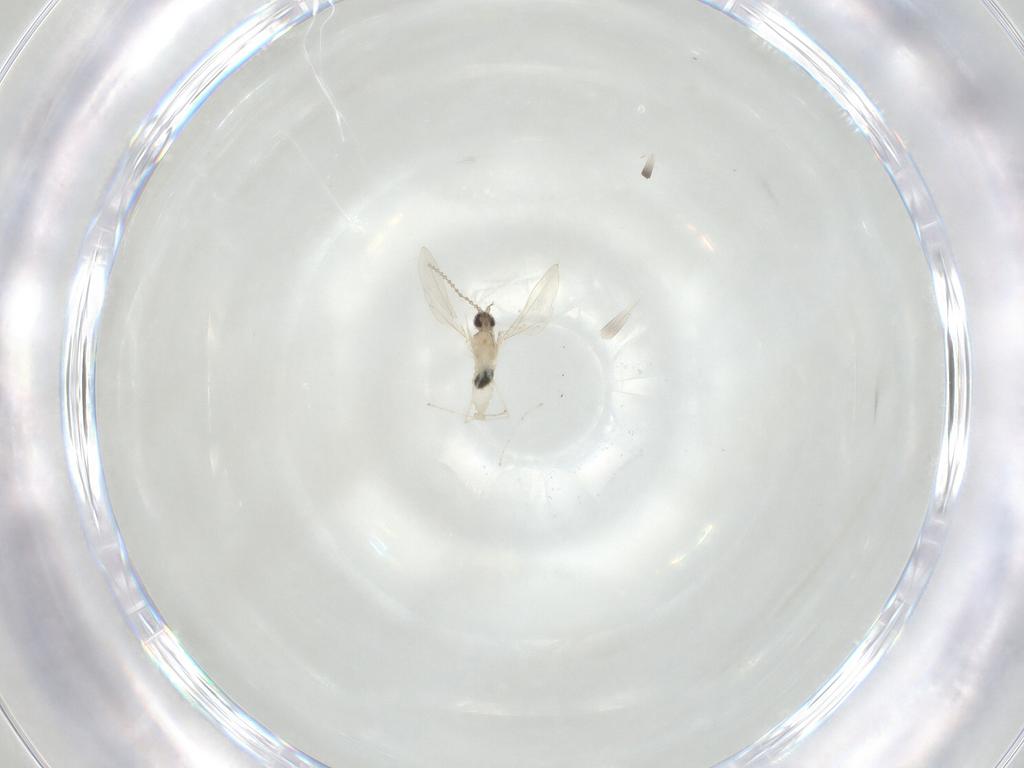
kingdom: Animalia
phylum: Arthropoda
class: Insecta
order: Diptera
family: Cecidomyiidae
